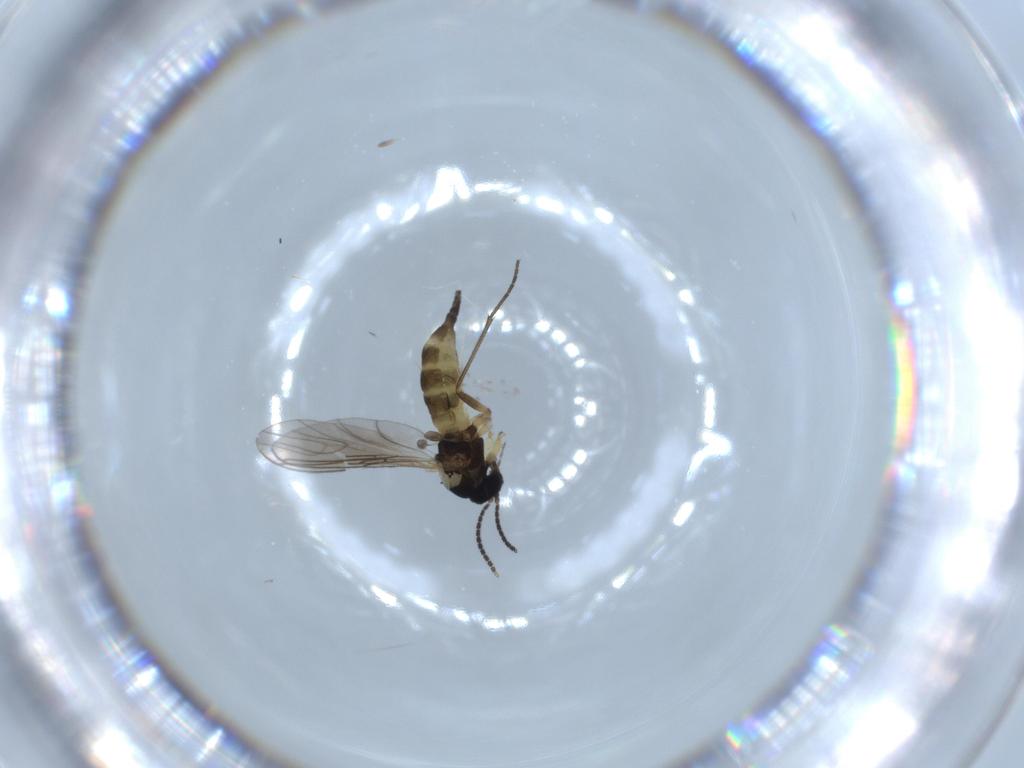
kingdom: Animalia
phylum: Arthropoda
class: Insecta
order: Diptera
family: Sciaridae
